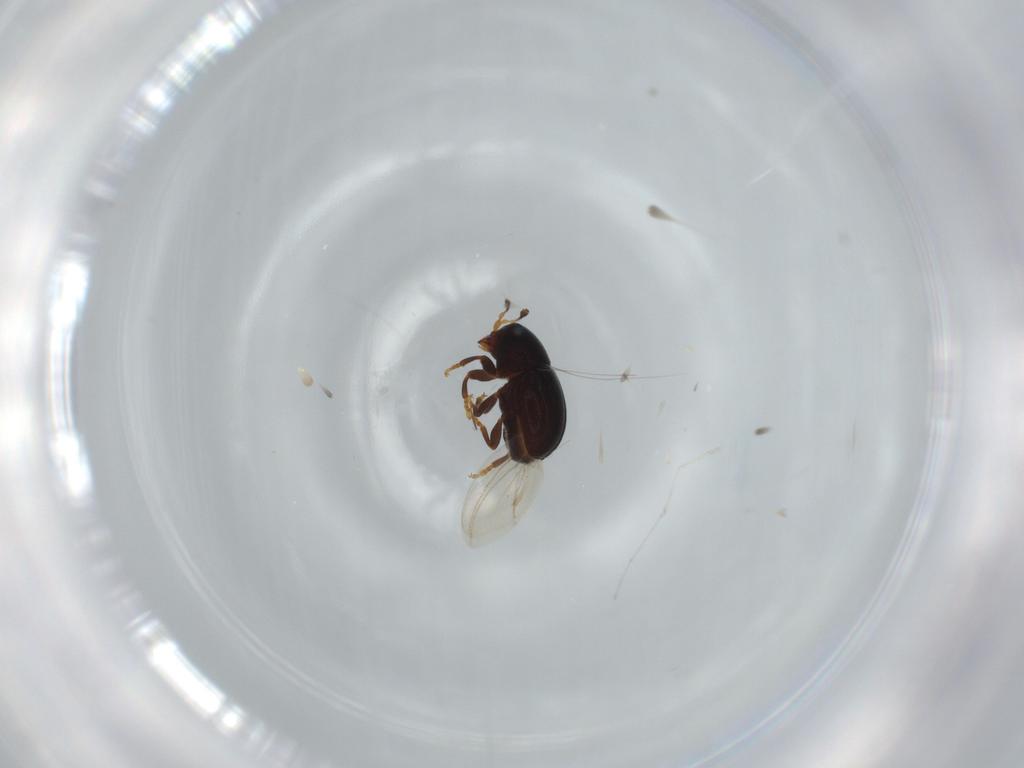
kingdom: Animalia
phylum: Arthropoda
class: Insecta
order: Coleoptera
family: Anthribidae
